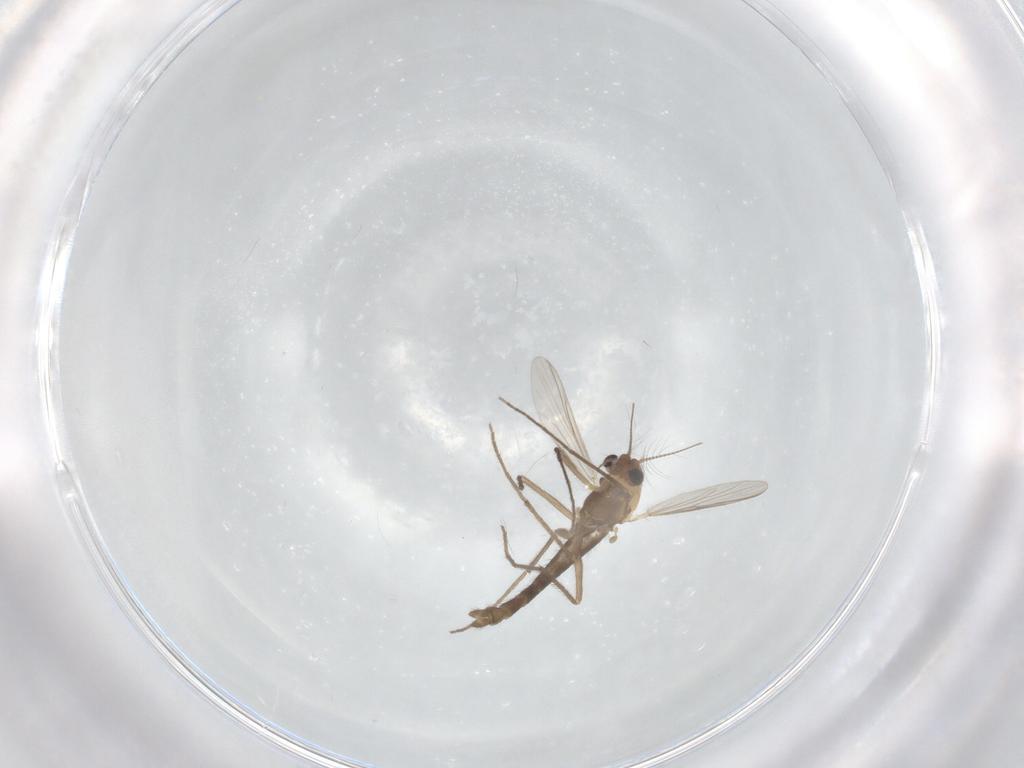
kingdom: Animalia
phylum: Arthropoda
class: Insecta
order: Diptera
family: Chironomidae
